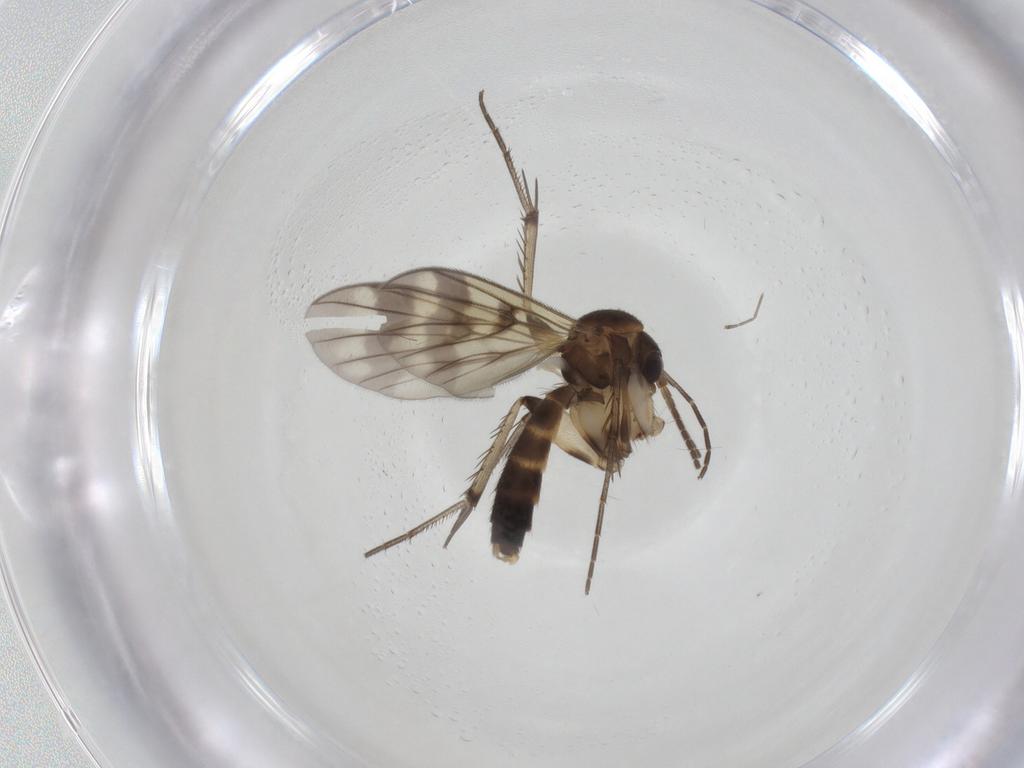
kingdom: Animalia
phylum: Arthropoda
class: Insecta
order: Diptera
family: Mycetophilidae
